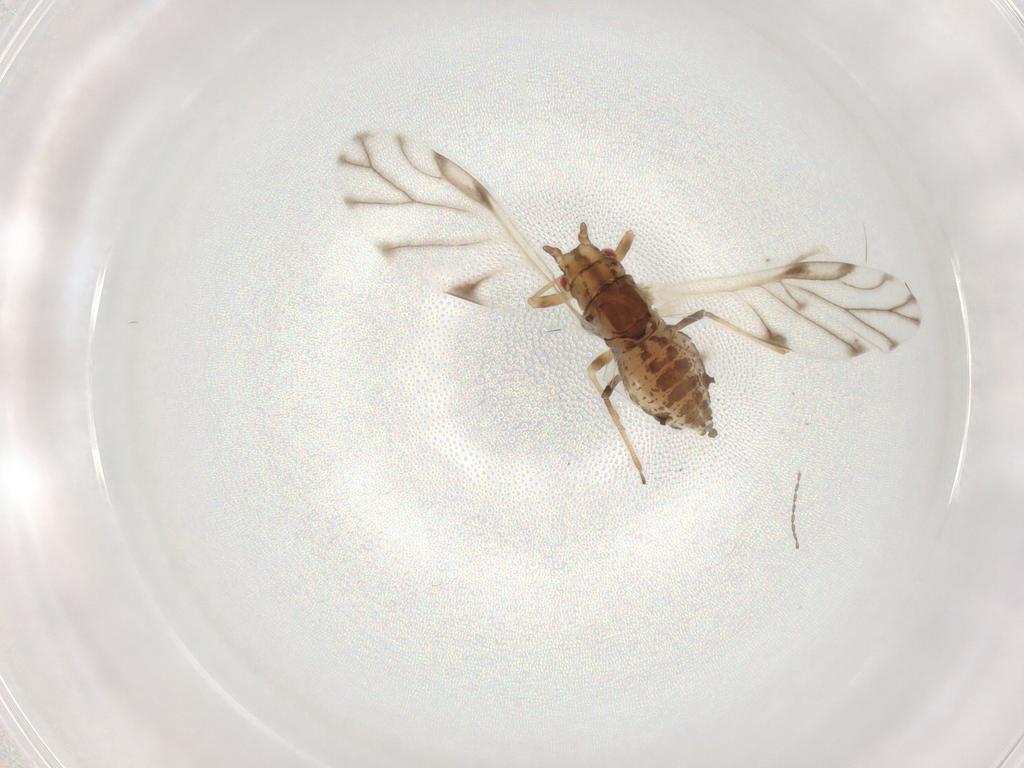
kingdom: Animalia
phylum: Arthropoda
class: Insecta
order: Hemiptera
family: Aphididae
